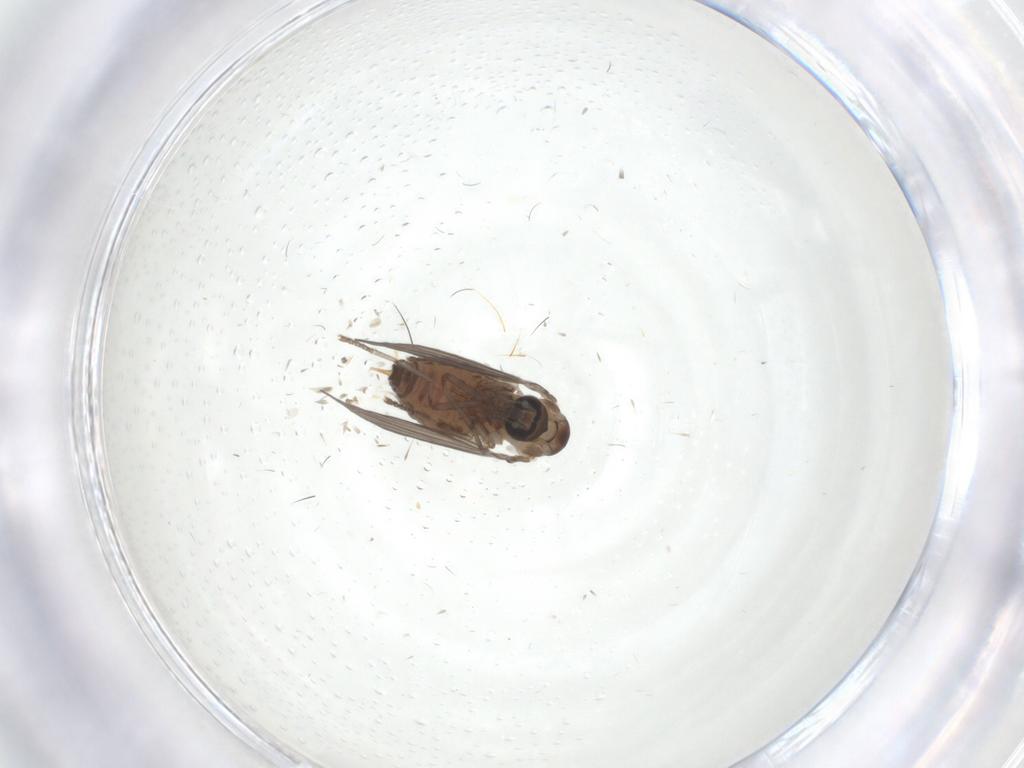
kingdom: Animalia
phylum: Arthropoda
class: Insecta
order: Diptera
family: Psychodidae
